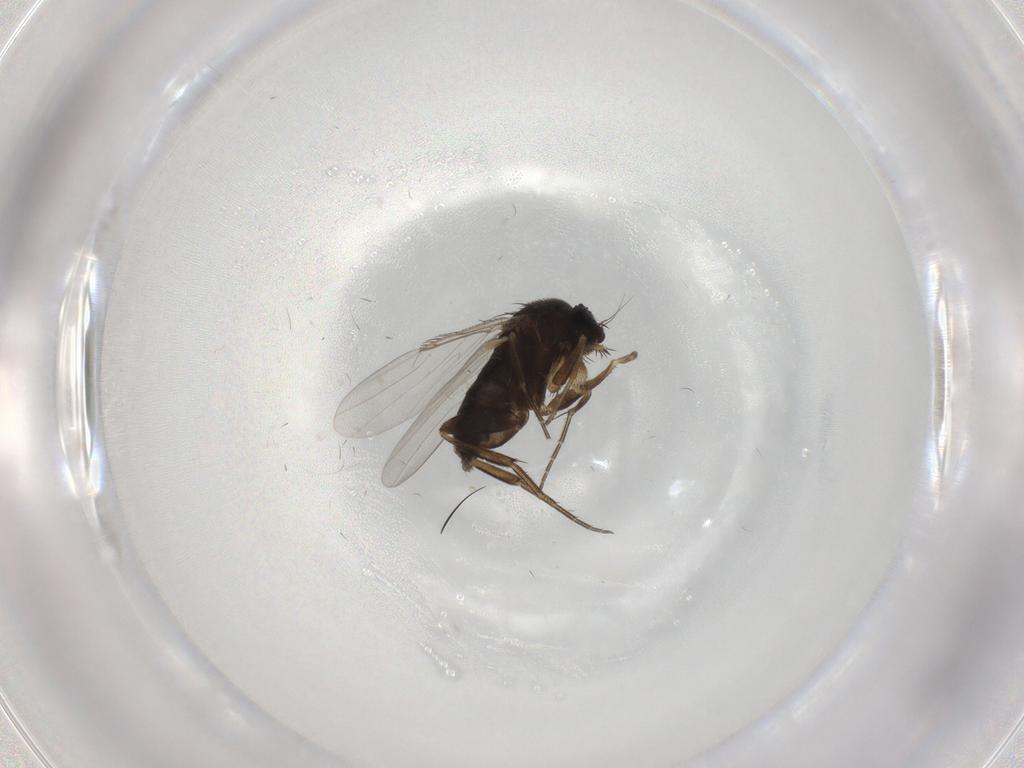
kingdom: Animalia
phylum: Arthropoda
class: Insecta
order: Diptera
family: Phoridae
